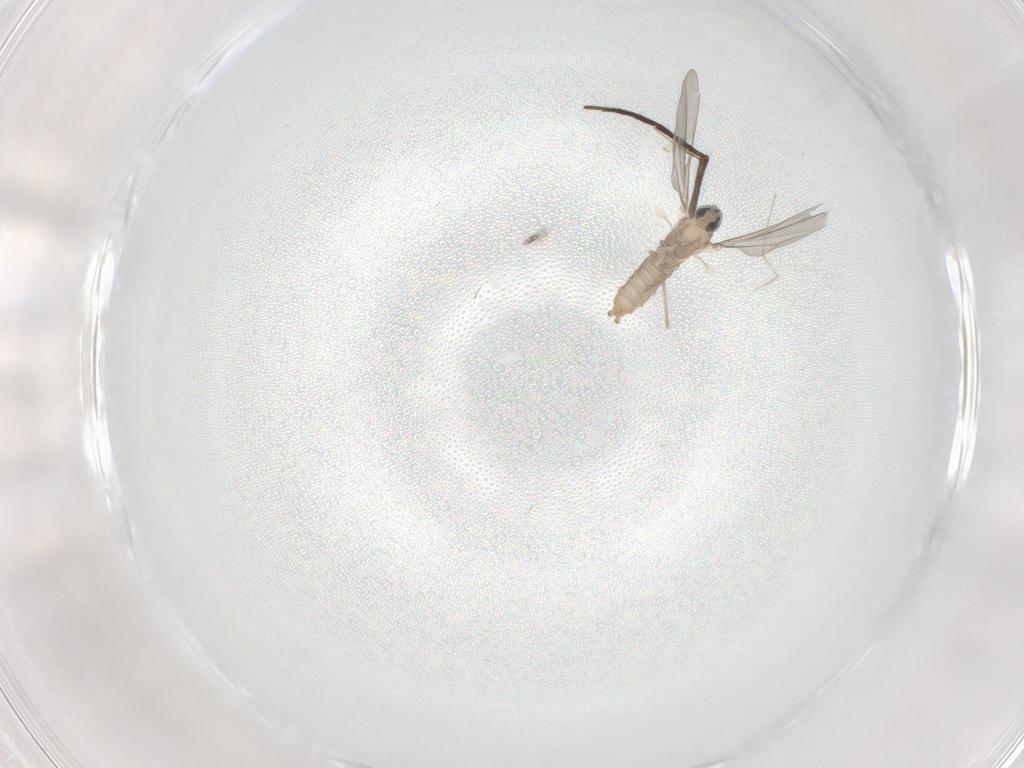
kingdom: Animalia
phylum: Arthropoda
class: Insecta
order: Diptera
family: Cecidomyiidae
